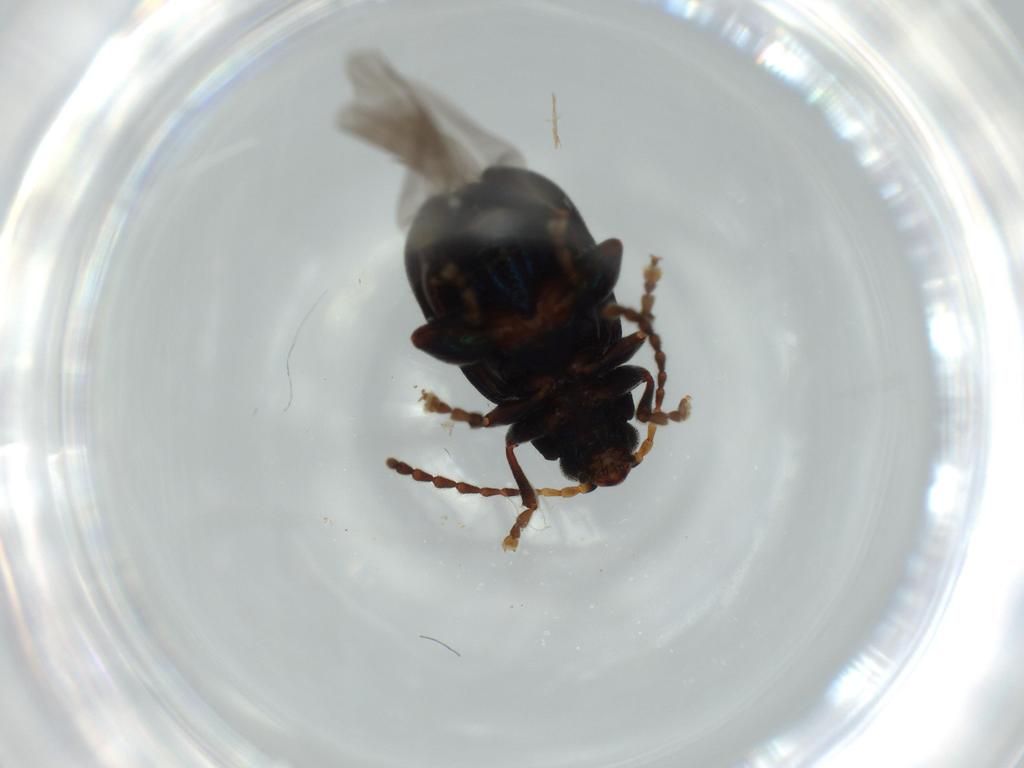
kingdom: Animalia
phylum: Arthropoda
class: Insecta
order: Coleoptera
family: Chrysomelidae
